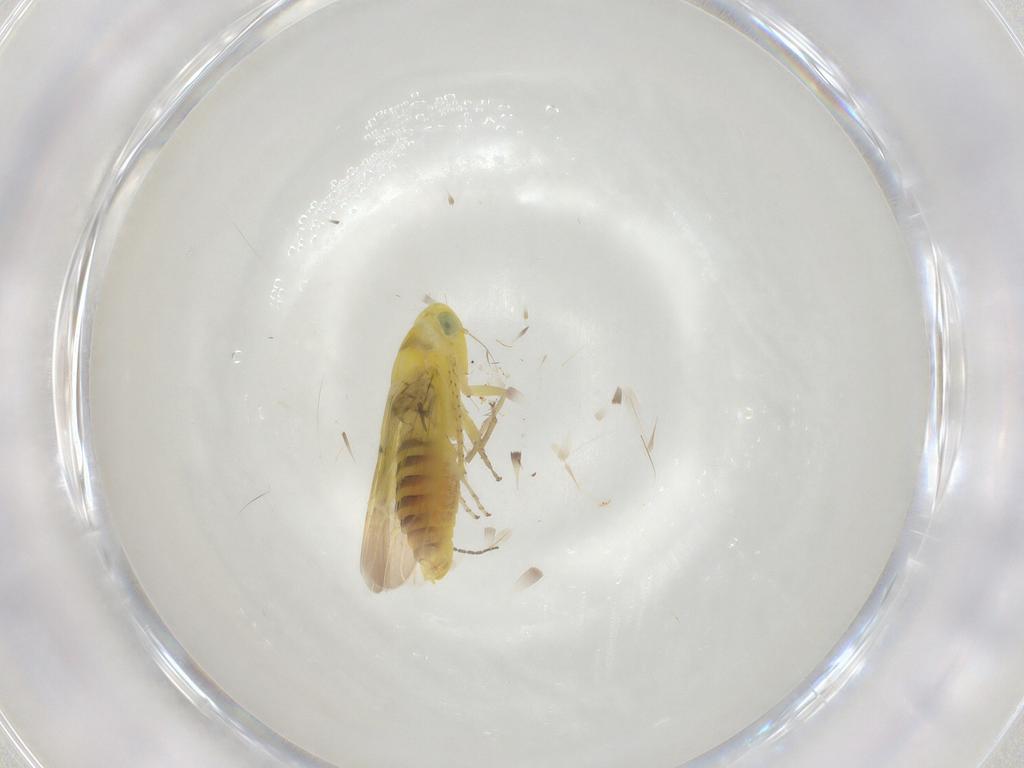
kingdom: Animalia
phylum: Arthropoda
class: Insecta
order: Hemiptera
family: Cicadellidae
